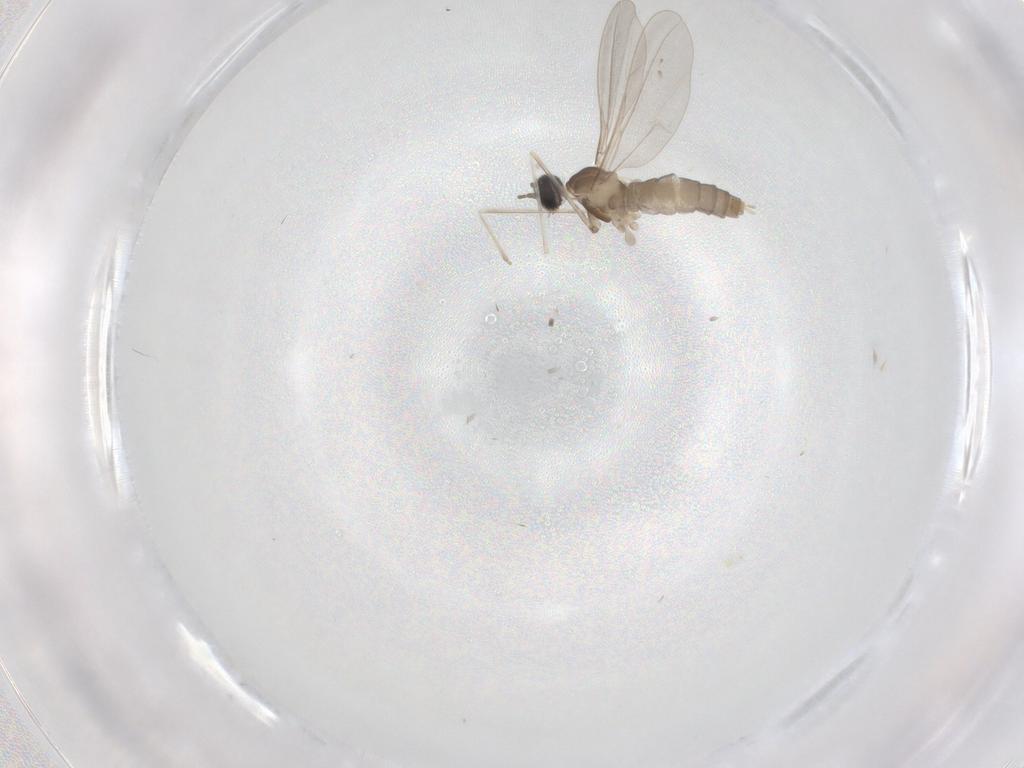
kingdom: Animalia
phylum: Arthropoda
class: Insecta
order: Diptera
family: Cecidomyiidae
